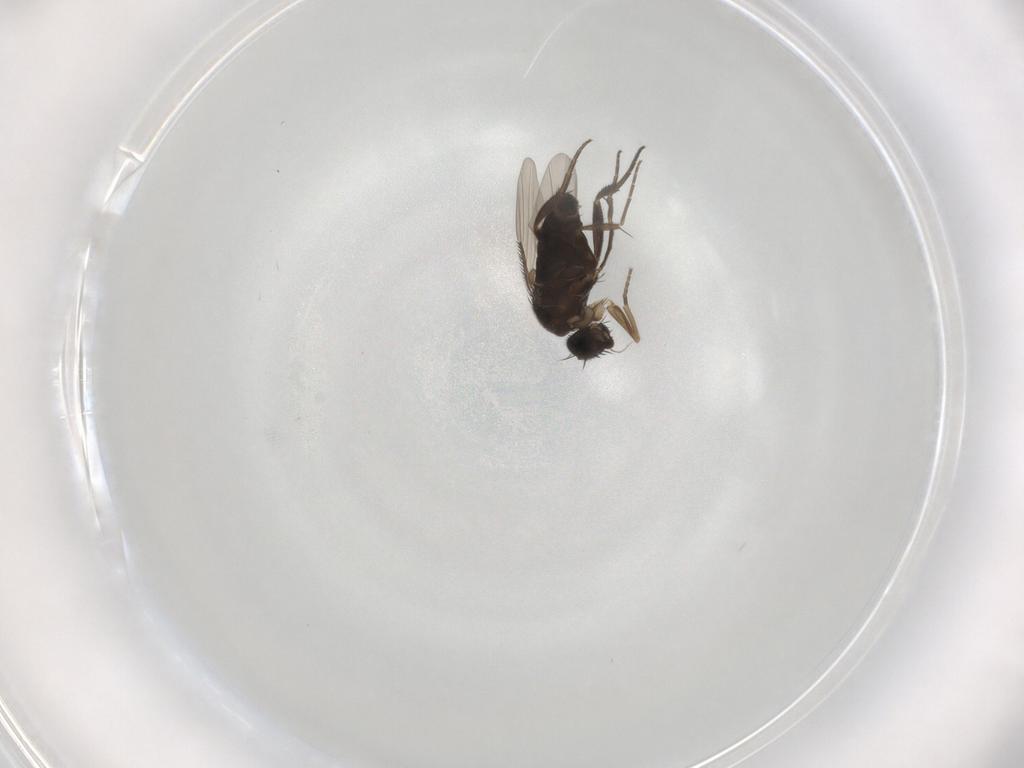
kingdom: Animalia
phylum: Arthropoda
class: Insecta
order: Diptera
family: Phoridae
